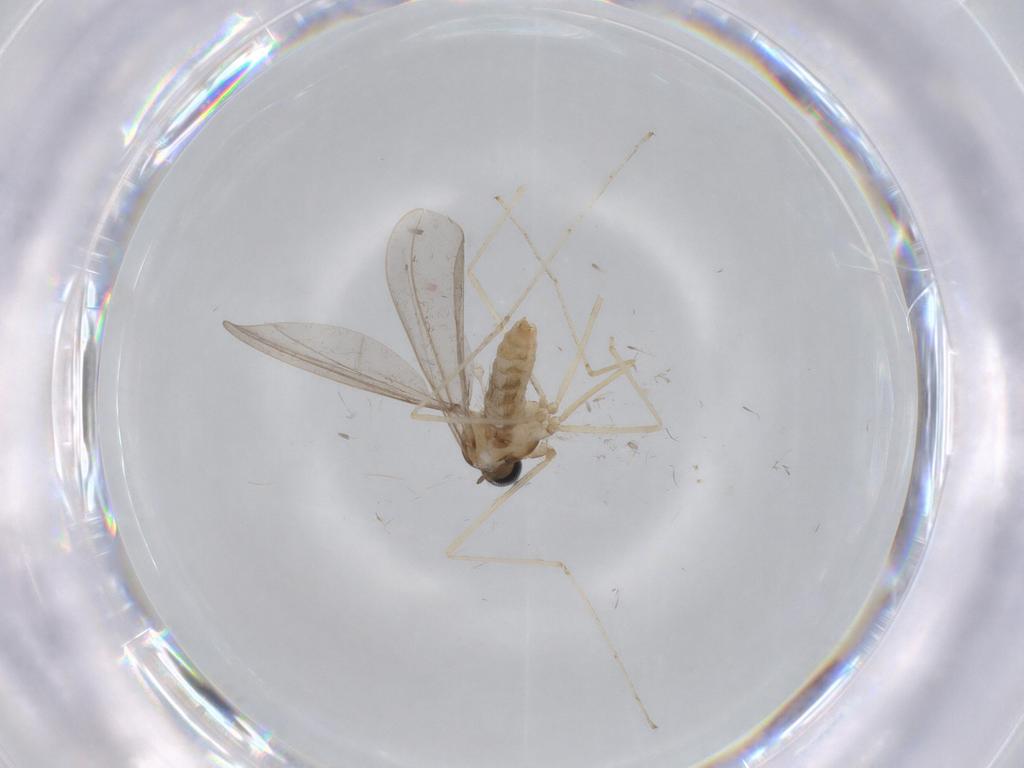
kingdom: Animalia
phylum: Arthropoda
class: Insecta
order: Diptera
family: Cecidomyiidae
